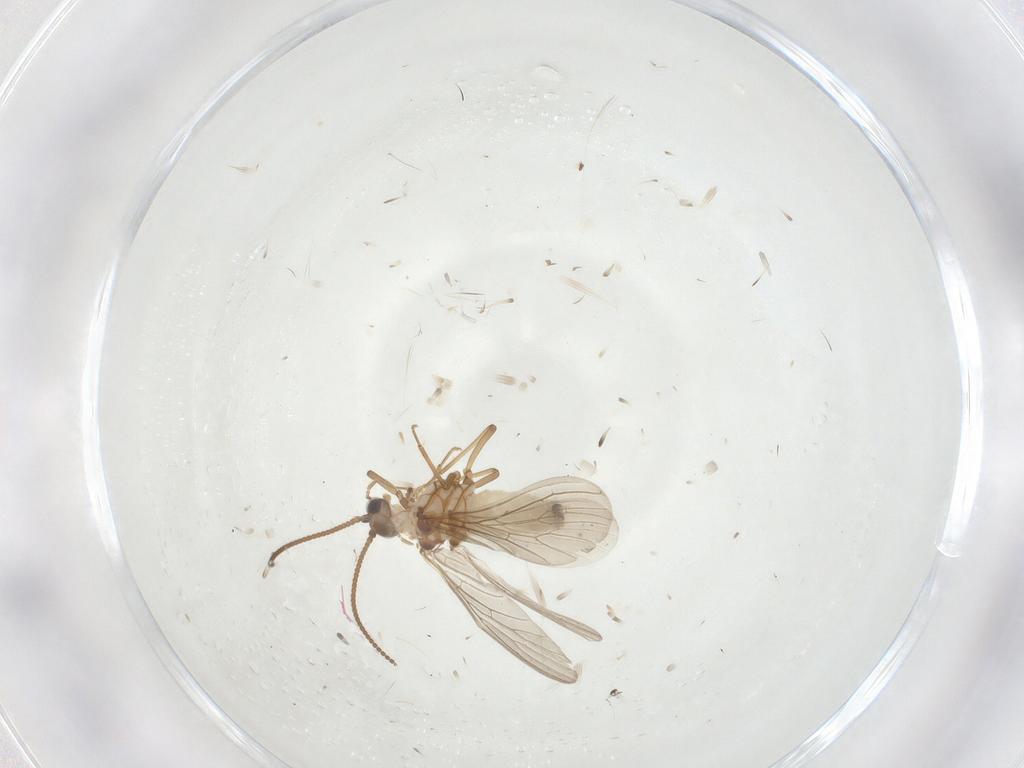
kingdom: Animalia
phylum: Arthropoda
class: Insecta
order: Neuroptera
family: Coniopterygidae
